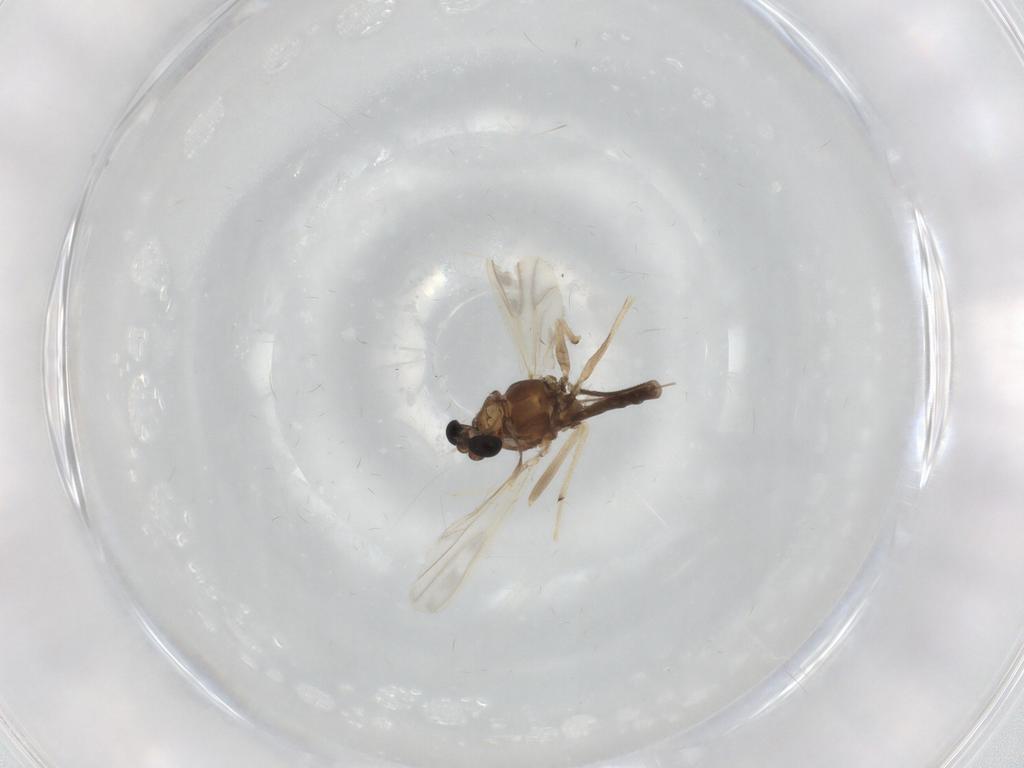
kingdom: Animalia
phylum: Arthropoda
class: Insecta
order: Diptera
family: Chironomidae
